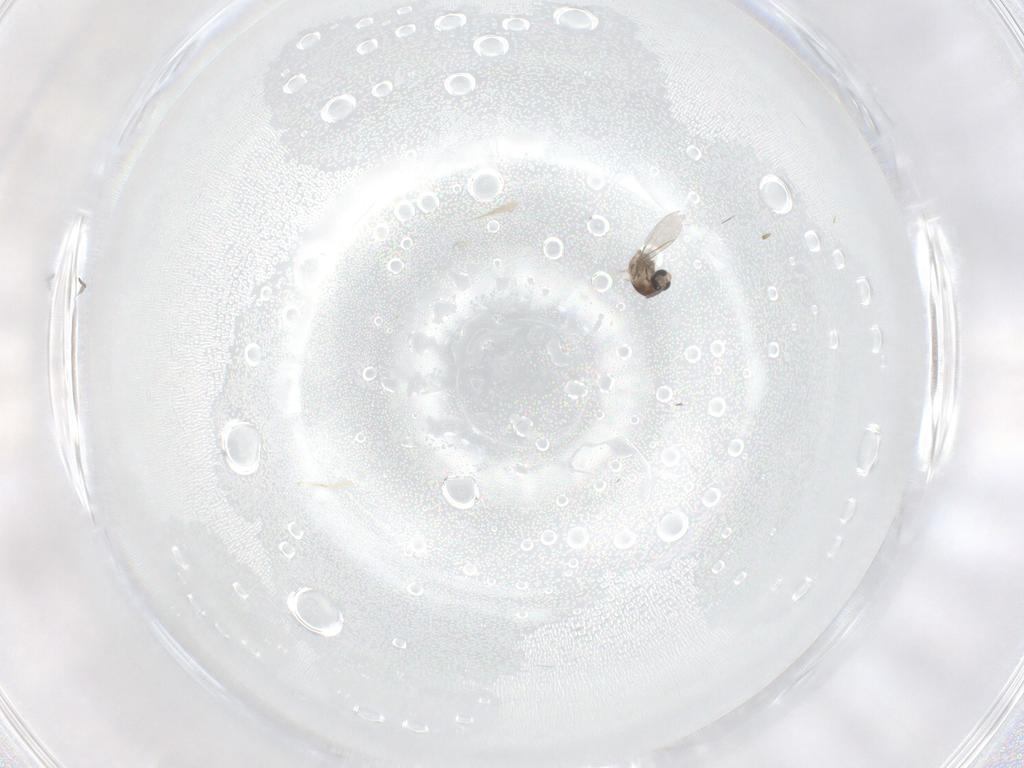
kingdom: Animalia
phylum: Arthropoda
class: Insecta
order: Diptera
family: Cecidomyiidae
